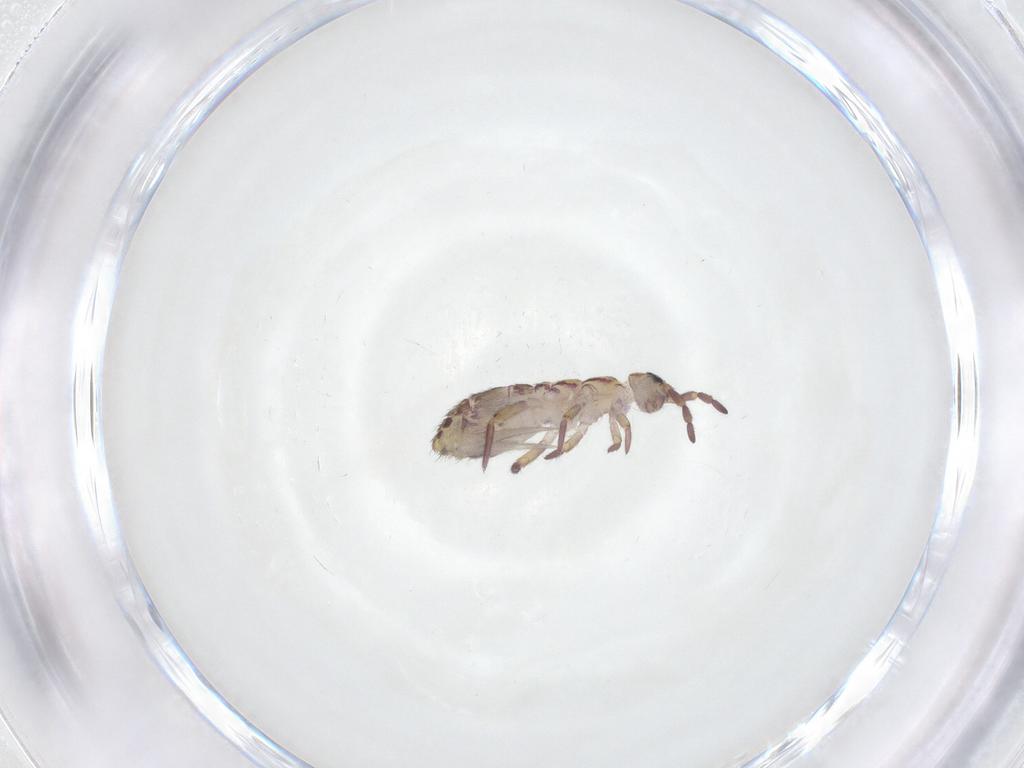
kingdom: Animalia
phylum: Arthropoda
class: Collembola
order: Entomobryomorpha
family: Isotomidae
